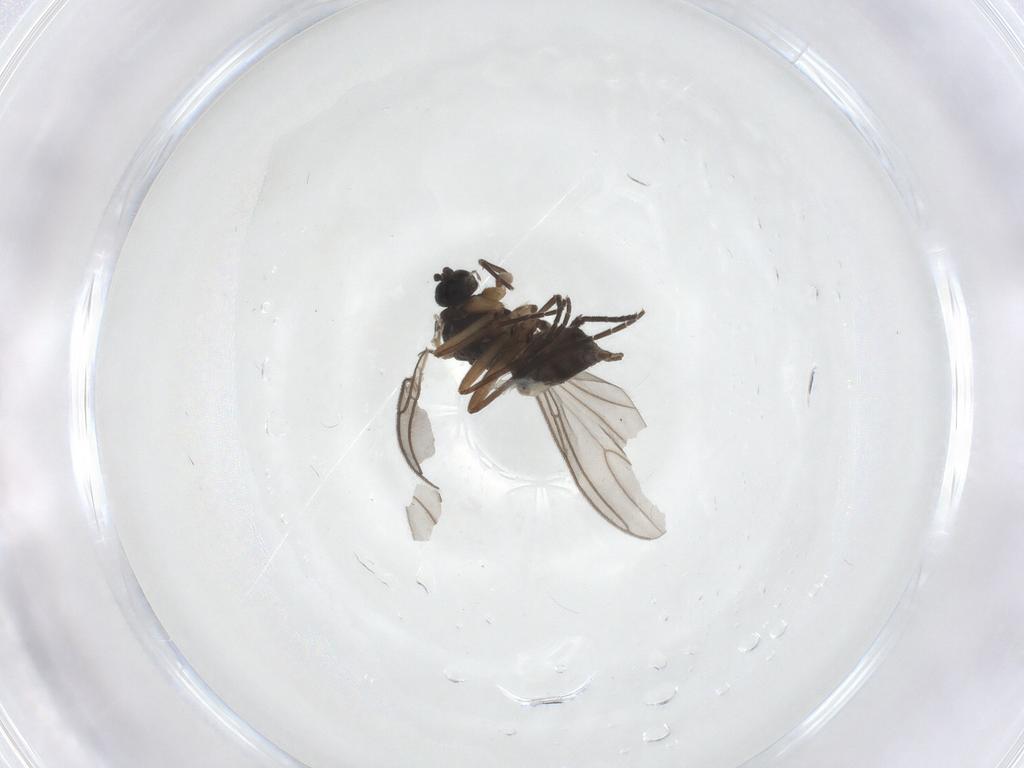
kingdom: Animalia
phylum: Arthropoda
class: Insecta
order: Diptera
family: Sciaridae
